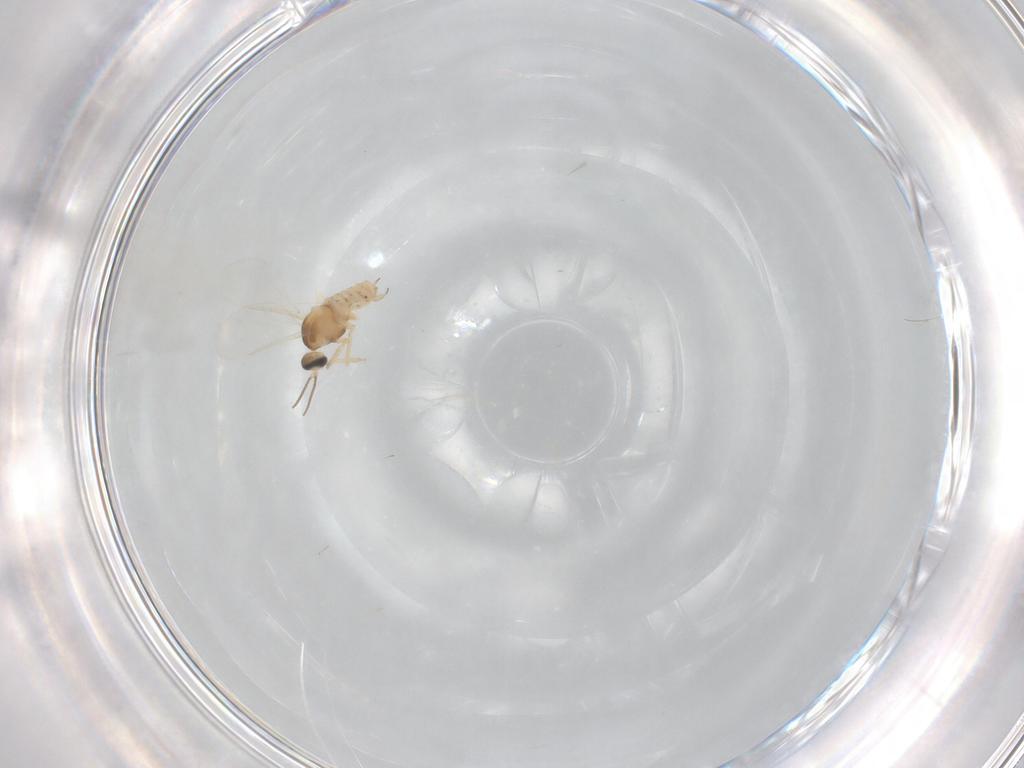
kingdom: Animalia
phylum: Arthropoda
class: Insecta
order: Diptera
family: Cecidomyiidae
